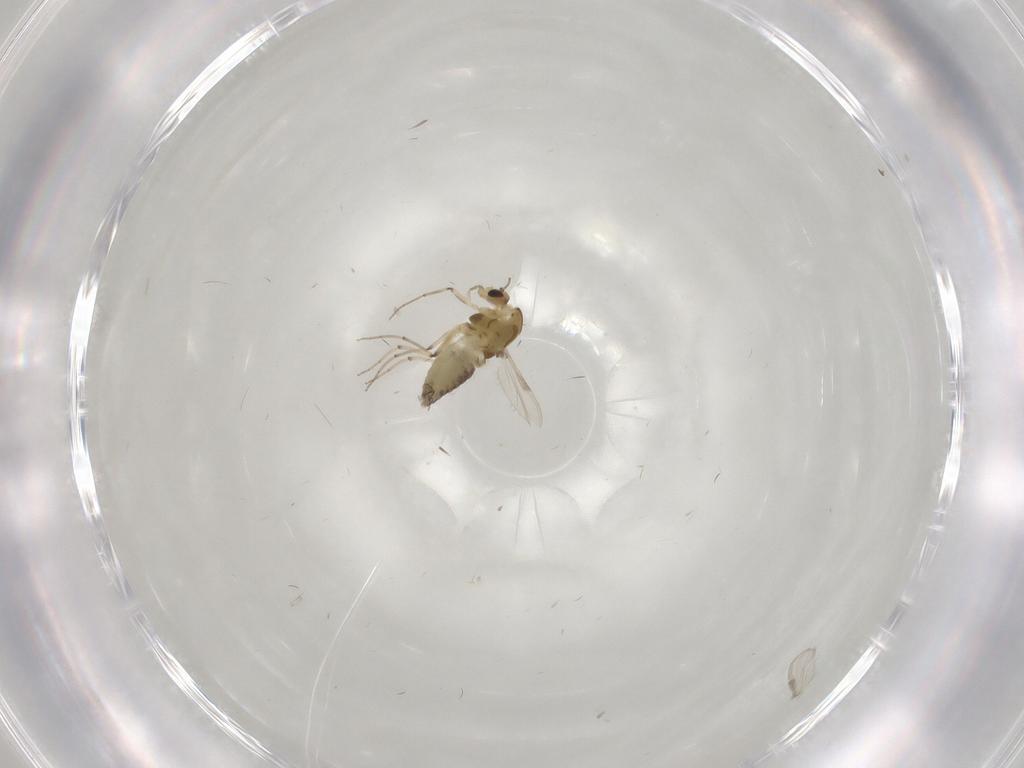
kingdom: Animalia
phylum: Arthropoda
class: Insecta
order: Diptera
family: Chironomidae
